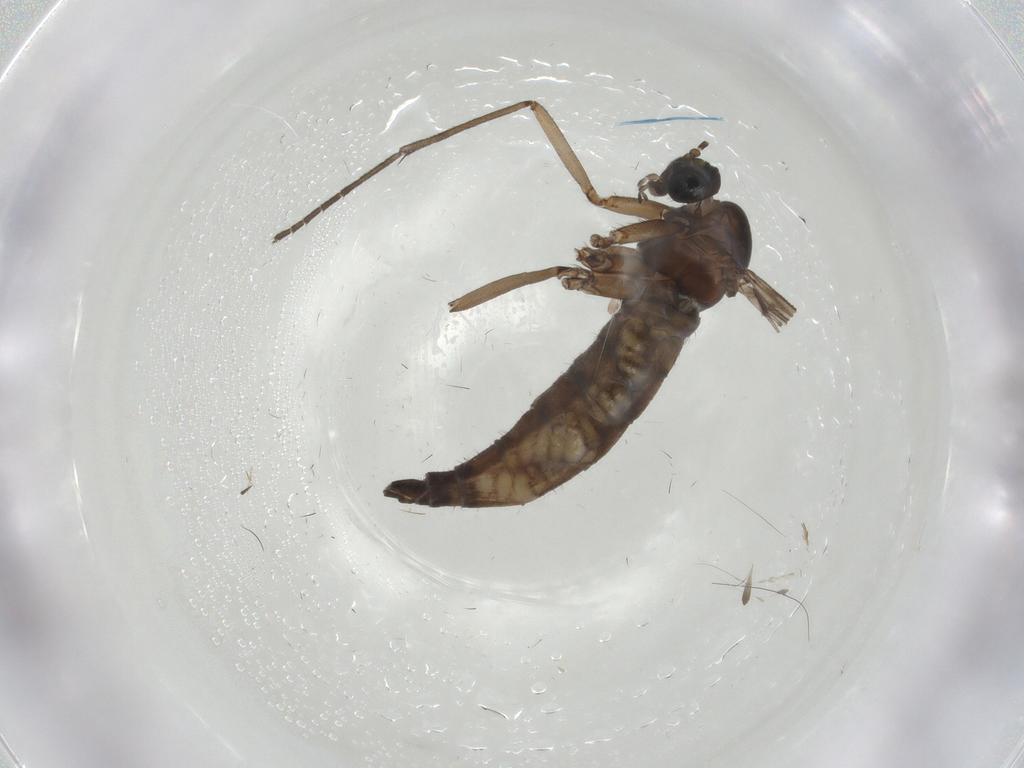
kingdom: Animalia
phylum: Arthropoda
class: Insecta
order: Diptera
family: Sciaridae
